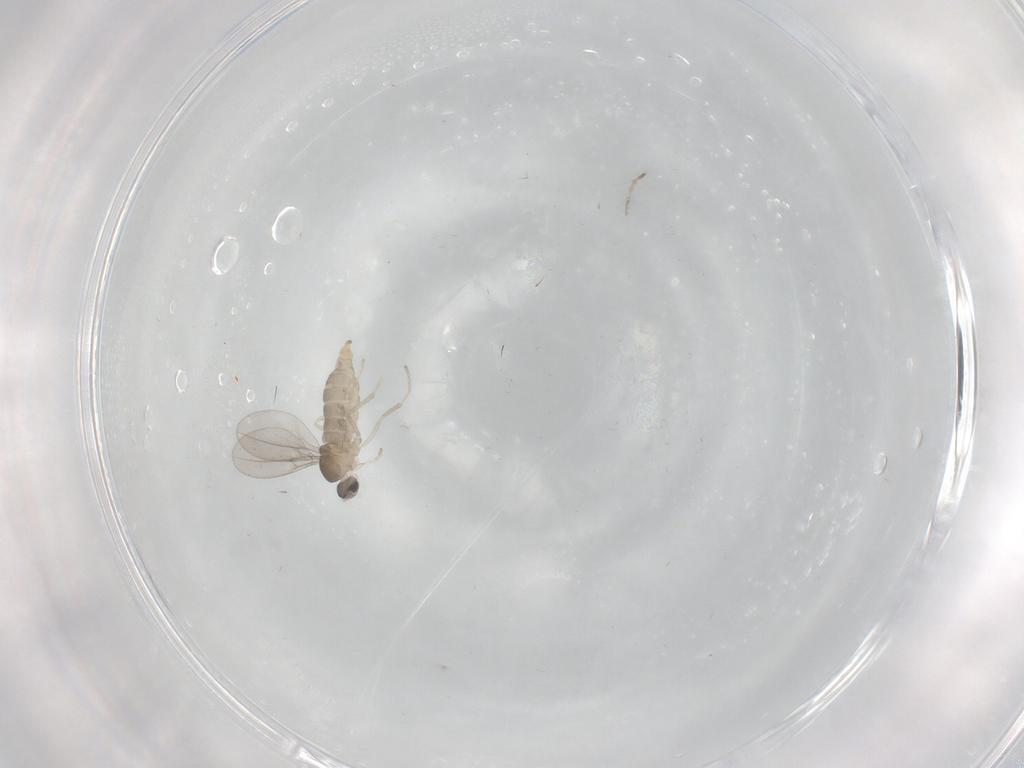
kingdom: Animalia
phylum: Arthropoda
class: Insecta
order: Diptera
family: Cecidomyiidae
